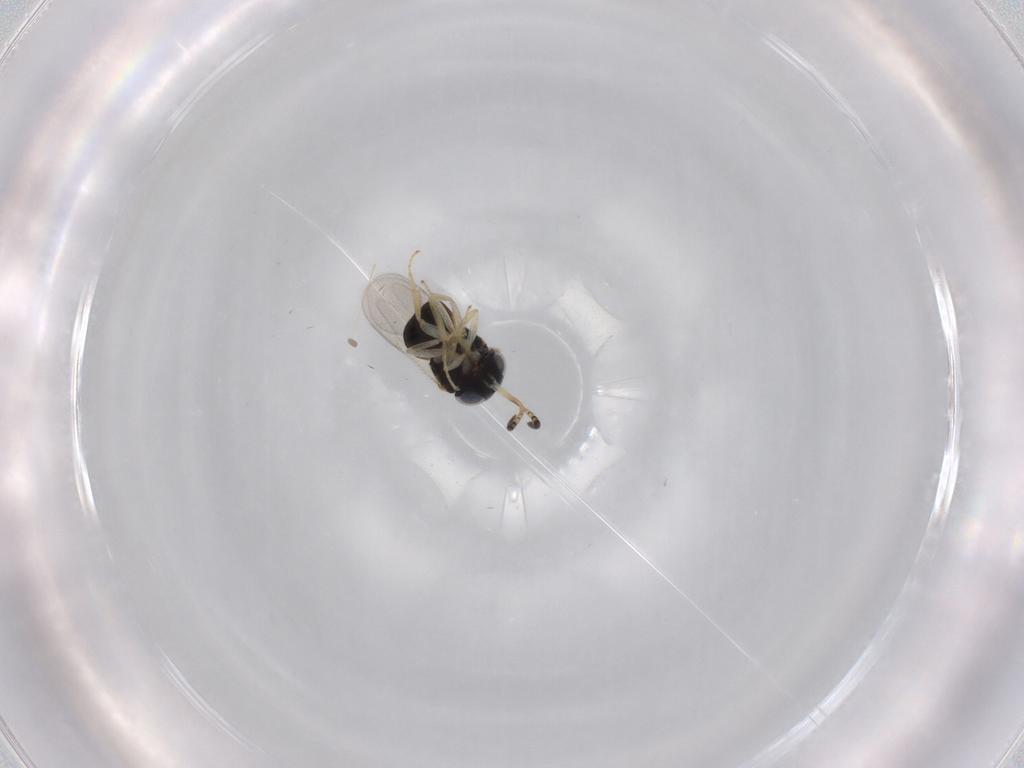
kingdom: Animalia
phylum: Arthropoda
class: Insecta
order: Hymenoptera
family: Scelionidae
